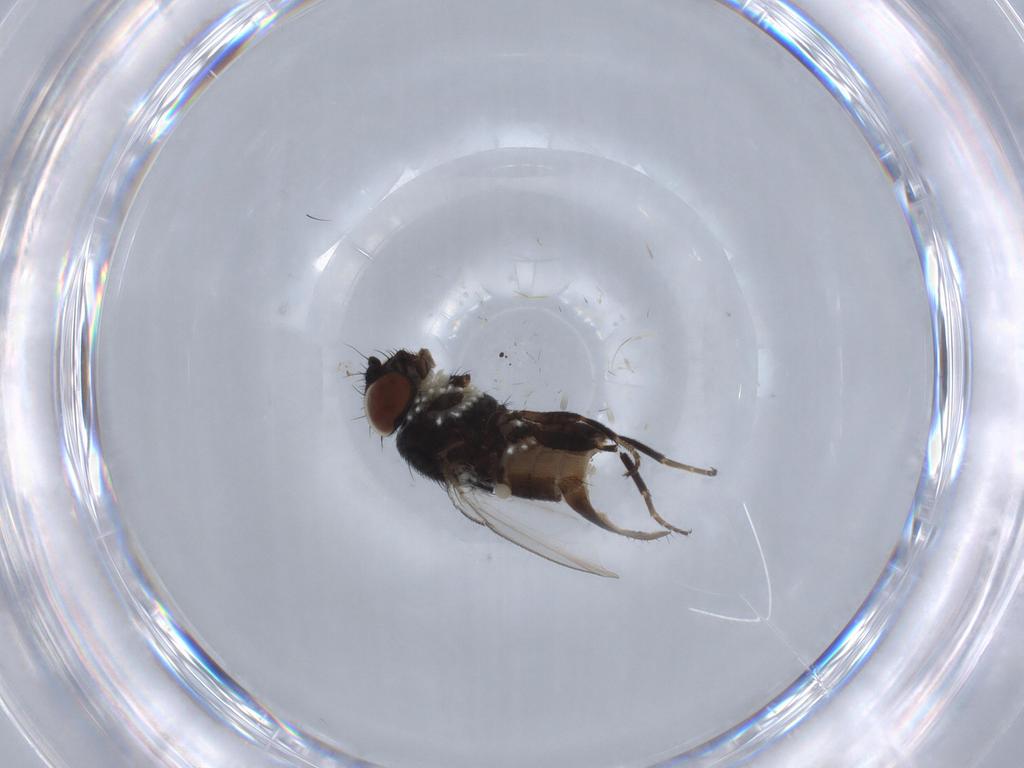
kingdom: Animalia
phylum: Arthropoda
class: Insecta
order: Diptera
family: Milichiidae
